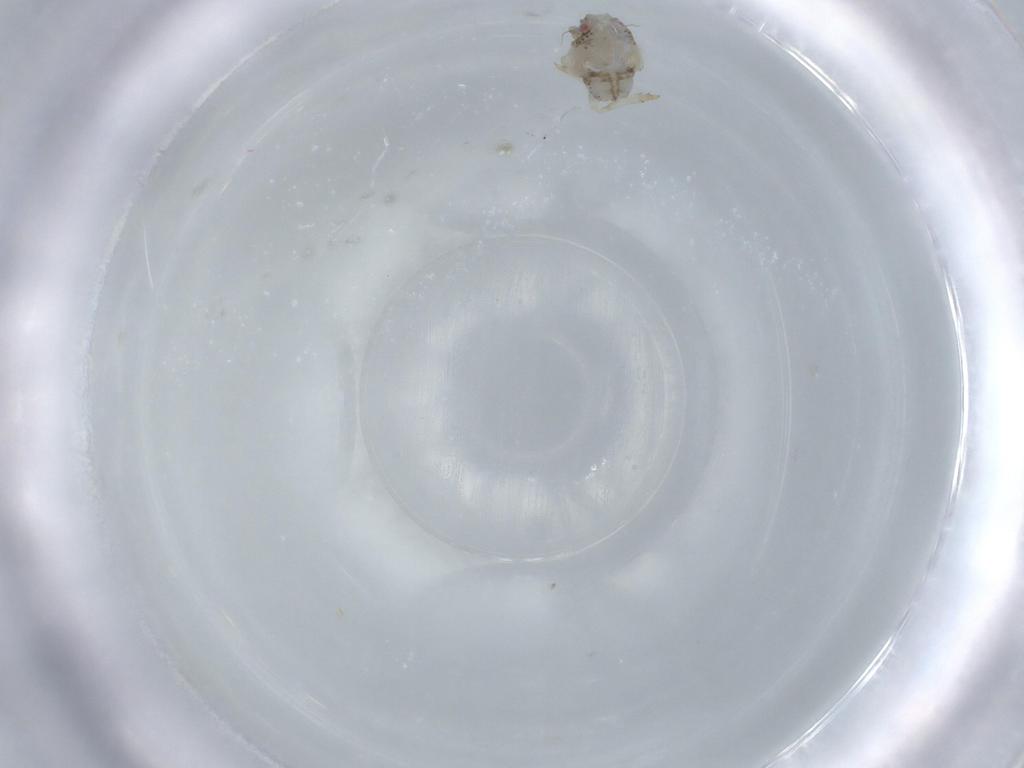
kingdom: Animalia
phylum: Arthropoda
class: Insecta
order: Hemiptera
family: Acanaloniidae
